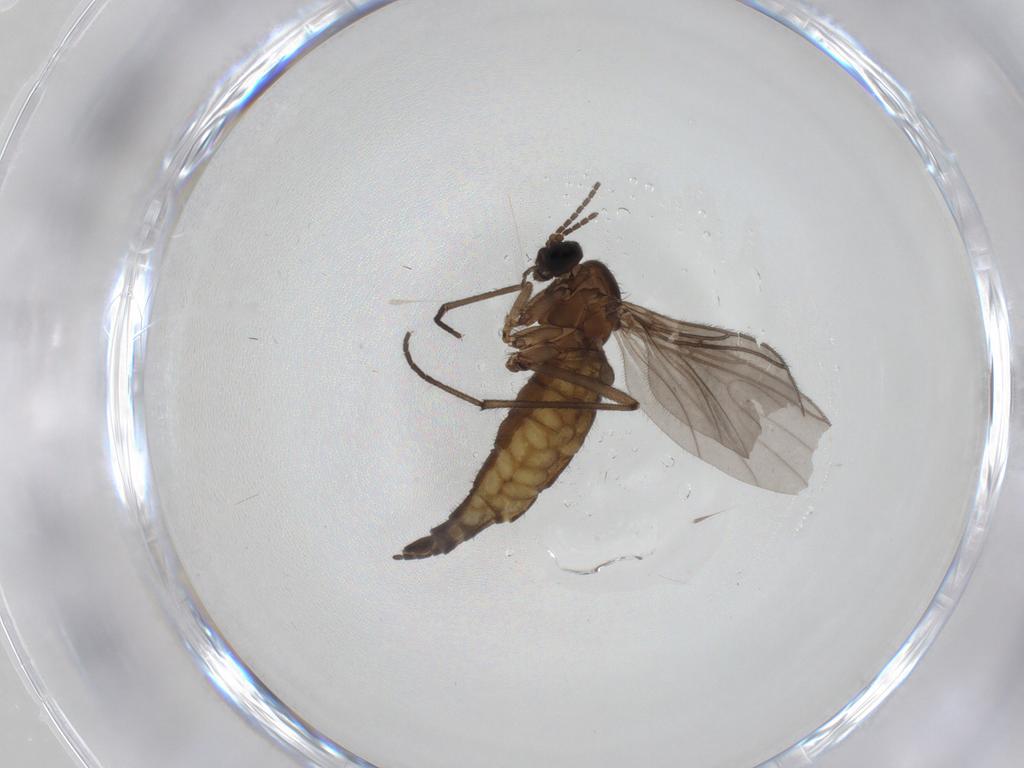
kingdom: Animalia
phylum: Arthropoda
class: Insecta
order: Diptera
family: Sciaridae
